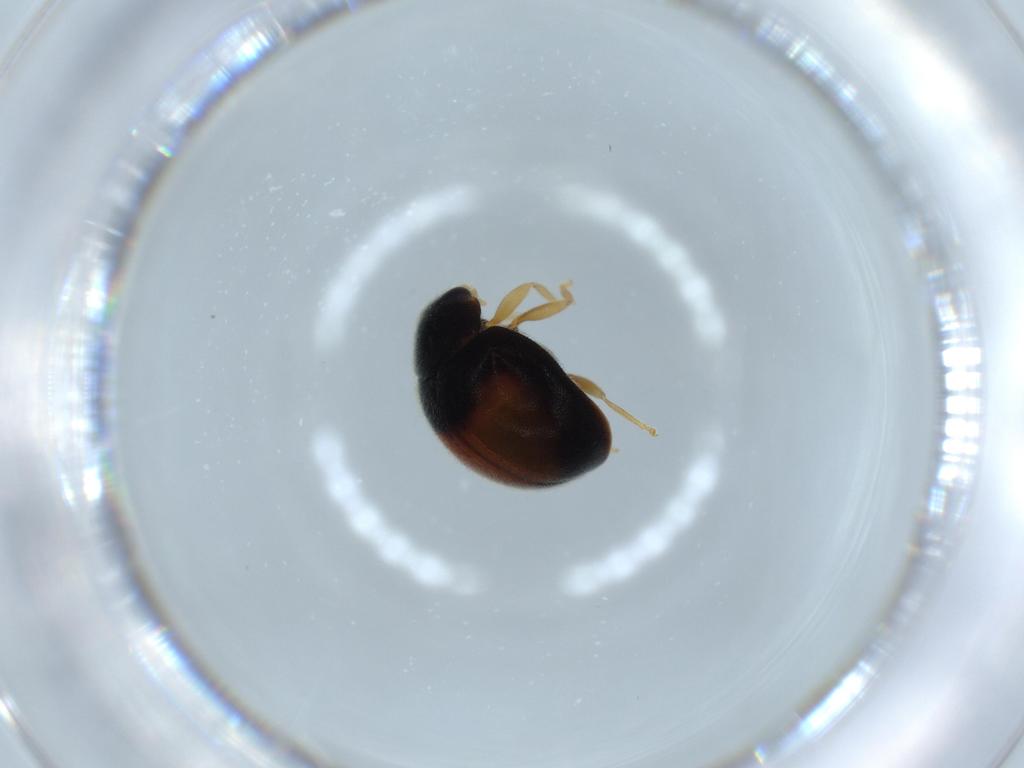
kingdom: Animalia
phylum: Arthropoda
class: Insecta
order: Coleoptera
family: Coccinellidae
